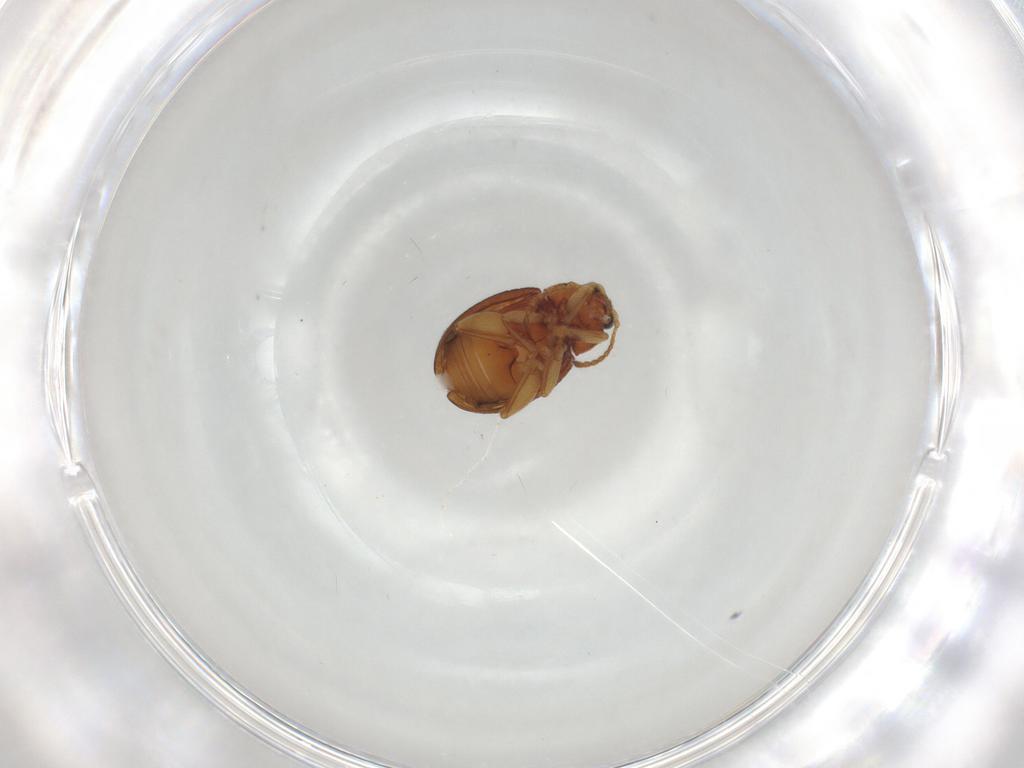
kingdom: Animalia
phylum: Arthropoda
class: Insecta
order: Coleoptera
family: Chrysomelidae
